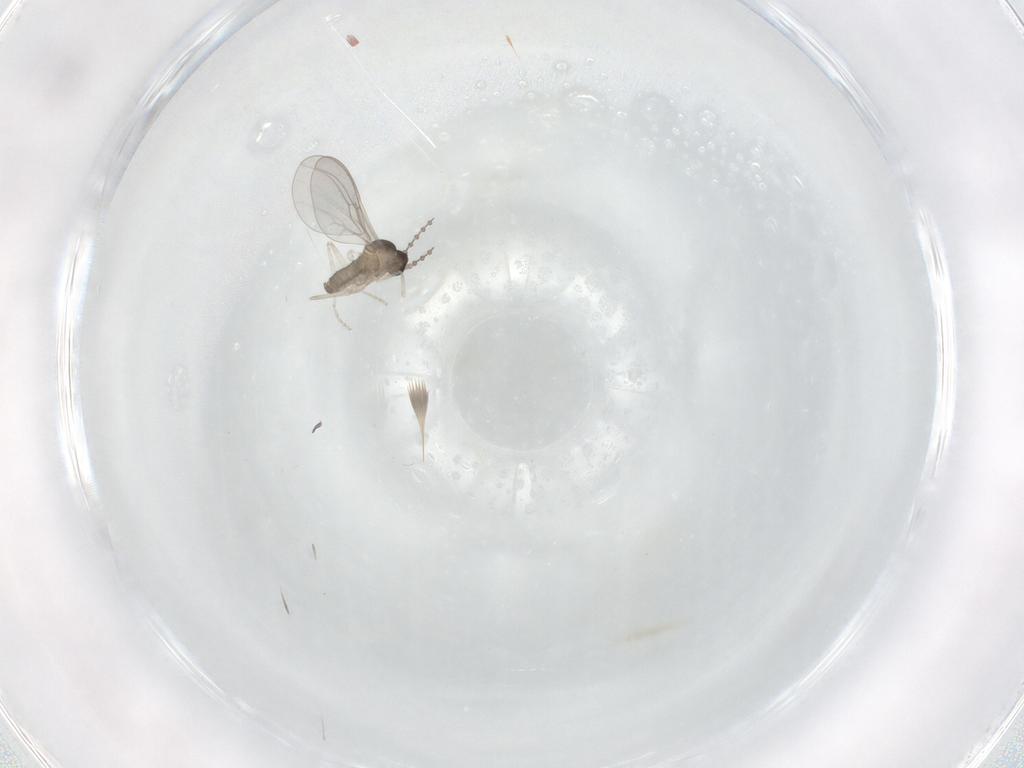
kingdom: Animalia
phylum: Arthropoda
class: Insecta
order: Diptera
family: Cecidomyiidae
